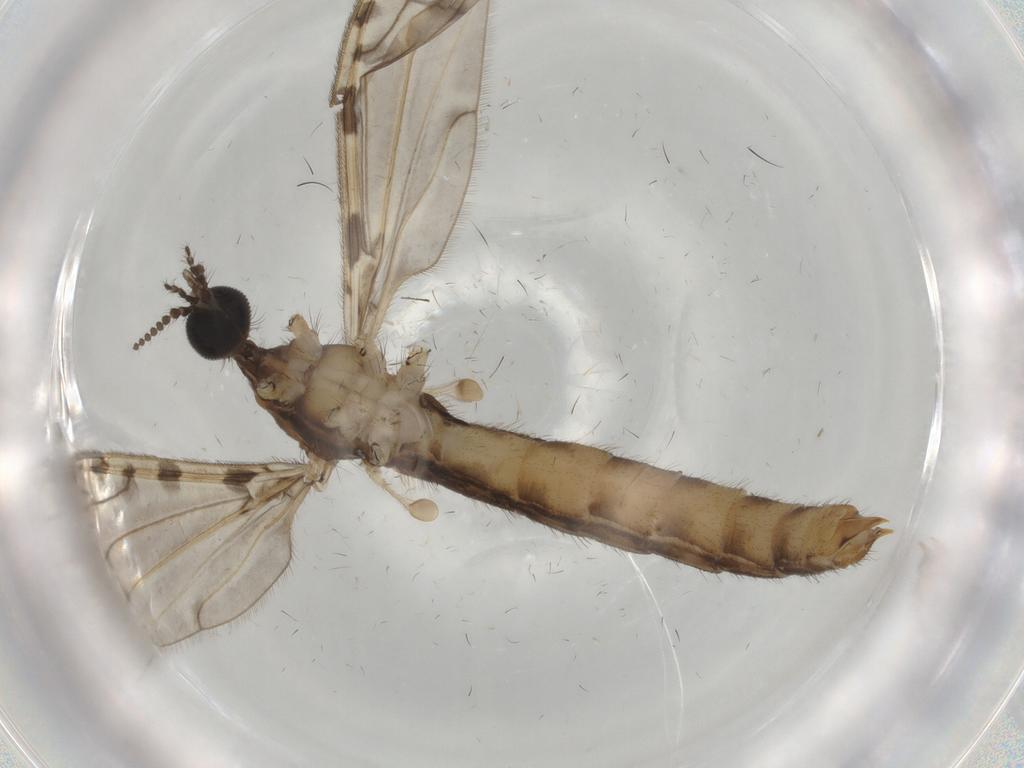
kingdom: Animalia
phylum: Arthropoda
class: Insecta
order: Diptera
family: Limoniidae
